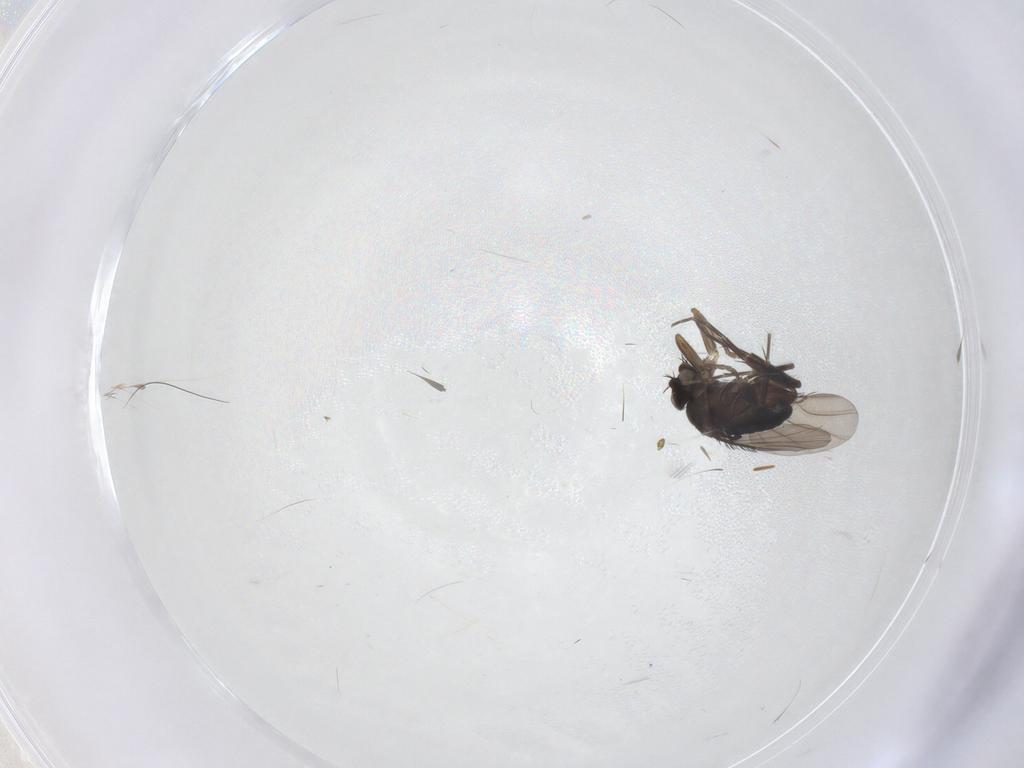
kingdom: Animalia
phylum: Arthropoda
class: Insecta
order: Diptera
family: Phoridae
